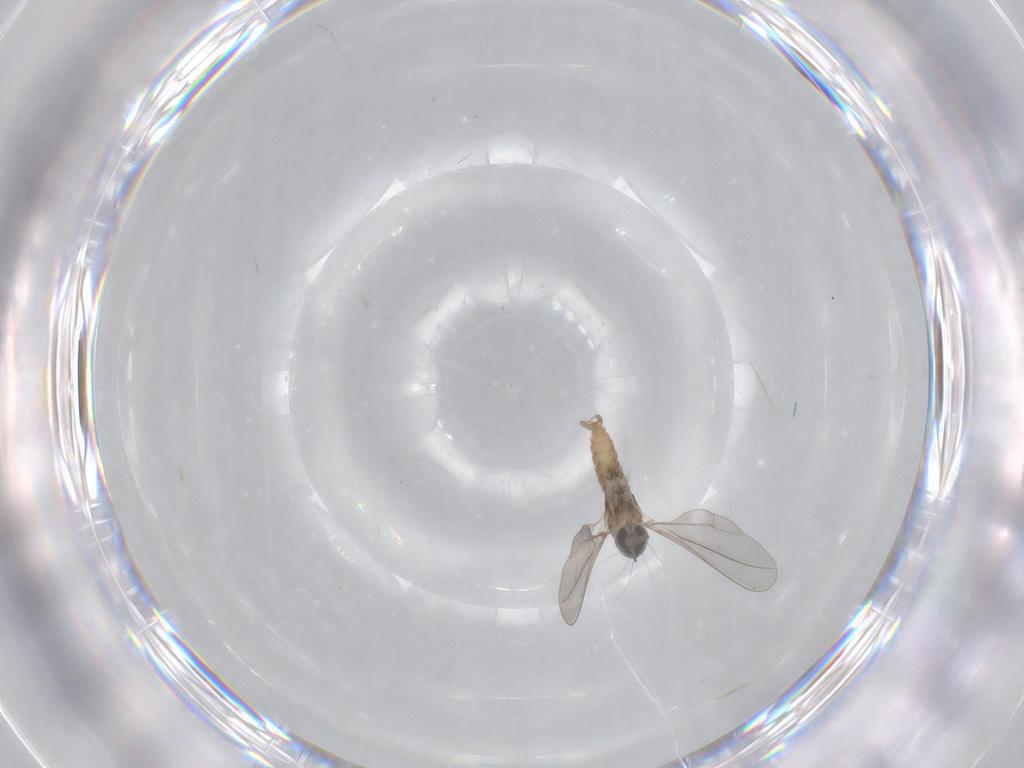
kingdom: Animalia
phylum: Arthropoda
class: Insecta
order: Diptera
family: Cecidomyiidae
